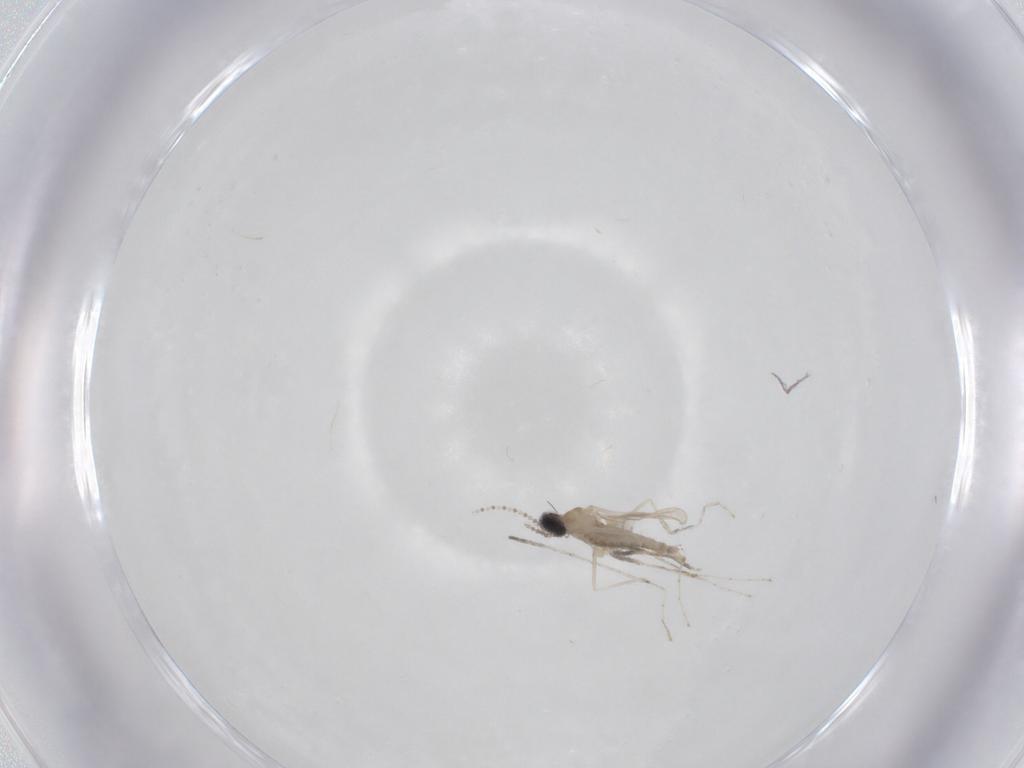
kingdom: Animalia
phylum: Arthropoda
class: Insecta
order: Diptera
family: Cecidomyiidae
